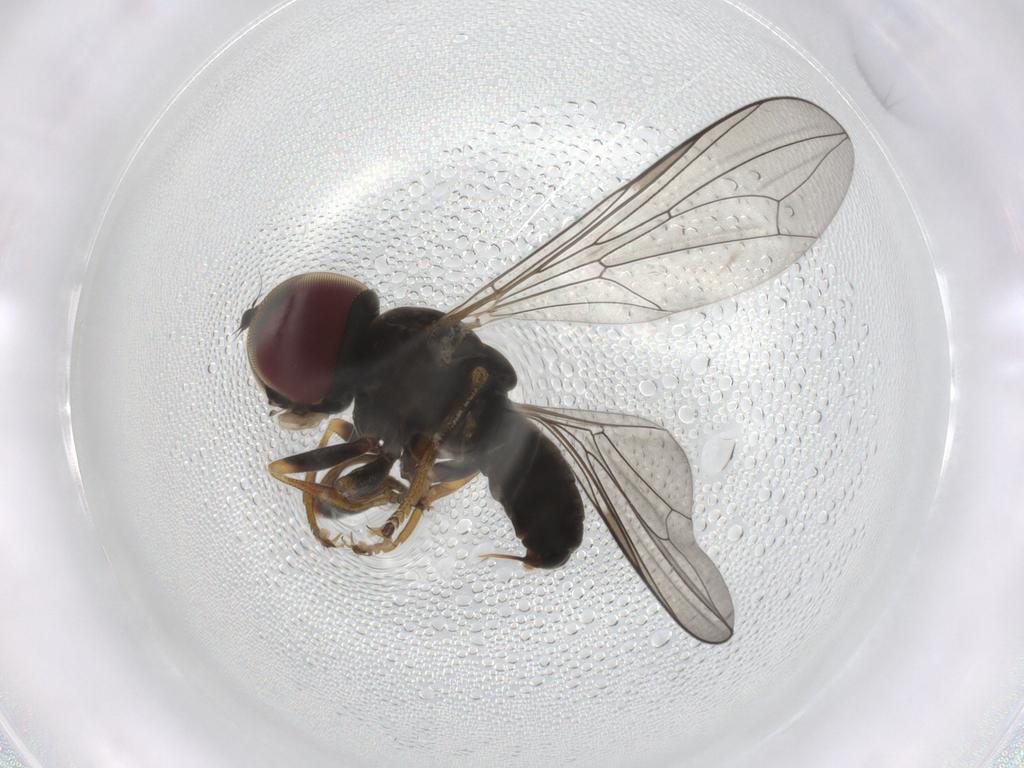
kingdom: Animalia
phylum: Arthropoda
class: Insecta
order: Diptera
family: Pipunculidae
